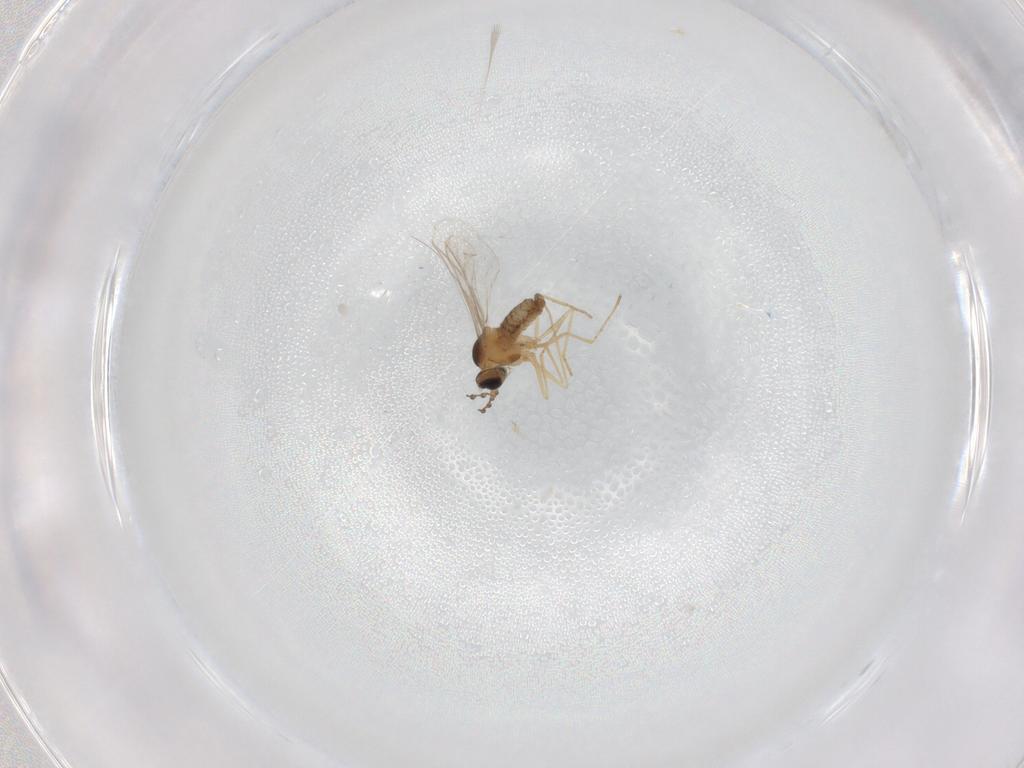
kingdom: Animalia
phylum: Arthropoda
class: Insecta
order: Diptera
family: Cecidomyiidae
